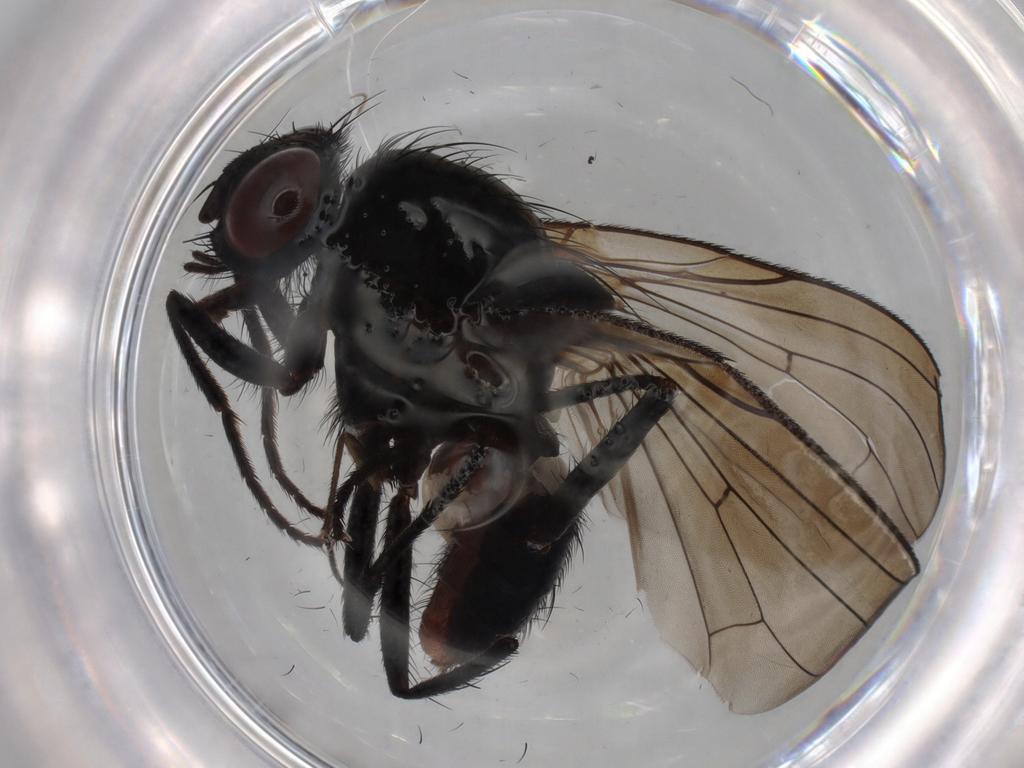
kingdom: Animalia
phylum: Arthropoda
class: Insecta
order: Diptera
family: Anthomyiidae
